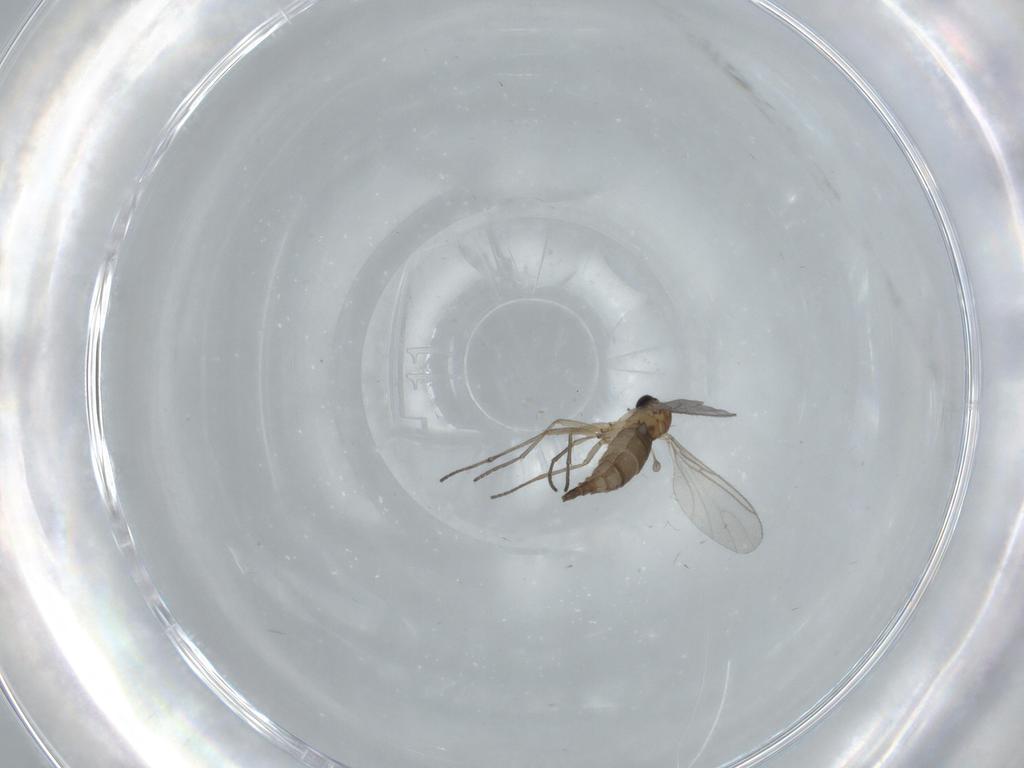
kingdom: Animalia
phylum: Arthropoda
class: Insecta
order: Diptera
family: Sciaridae
